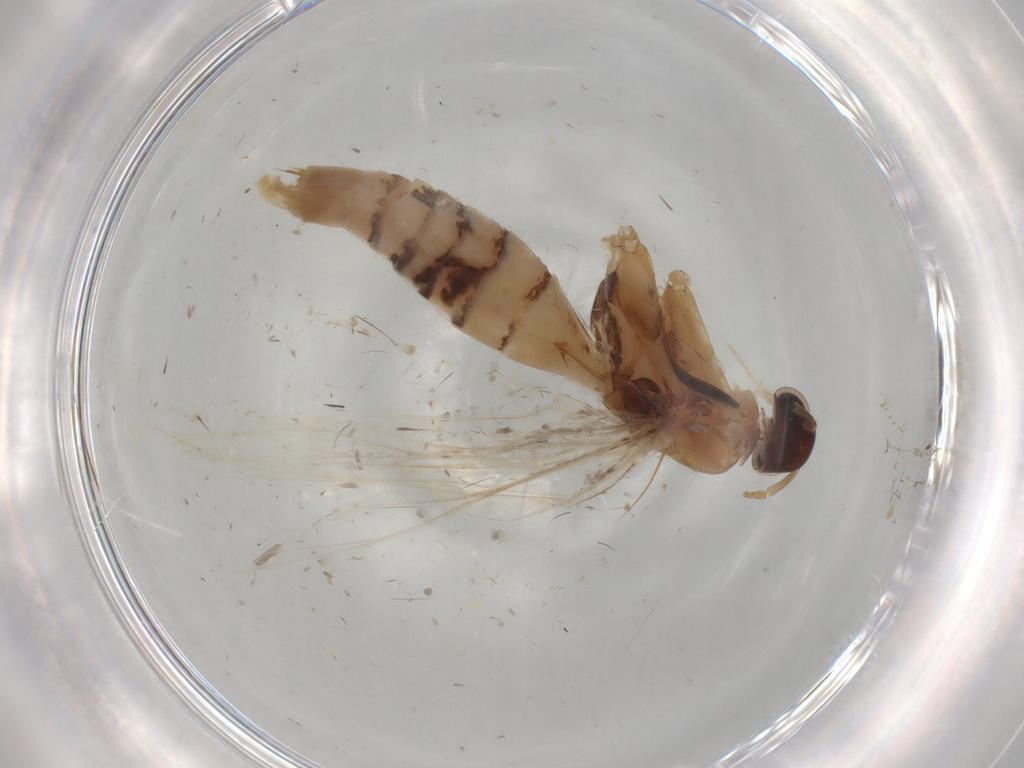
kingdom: Animalia
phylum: Arthropoda
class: Insecta
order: Lepidoptera
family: Gelechiidae
